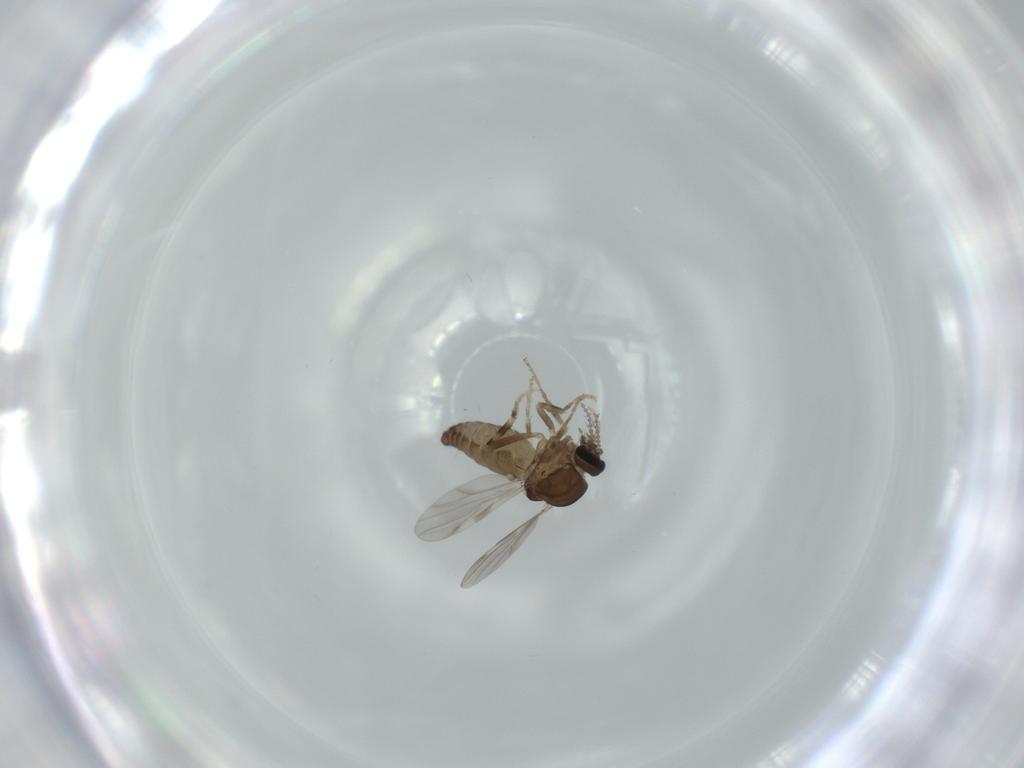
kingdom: Animalia
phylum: Arthropoda
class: Insecta
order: Diptera
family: Ceratopogonidae
